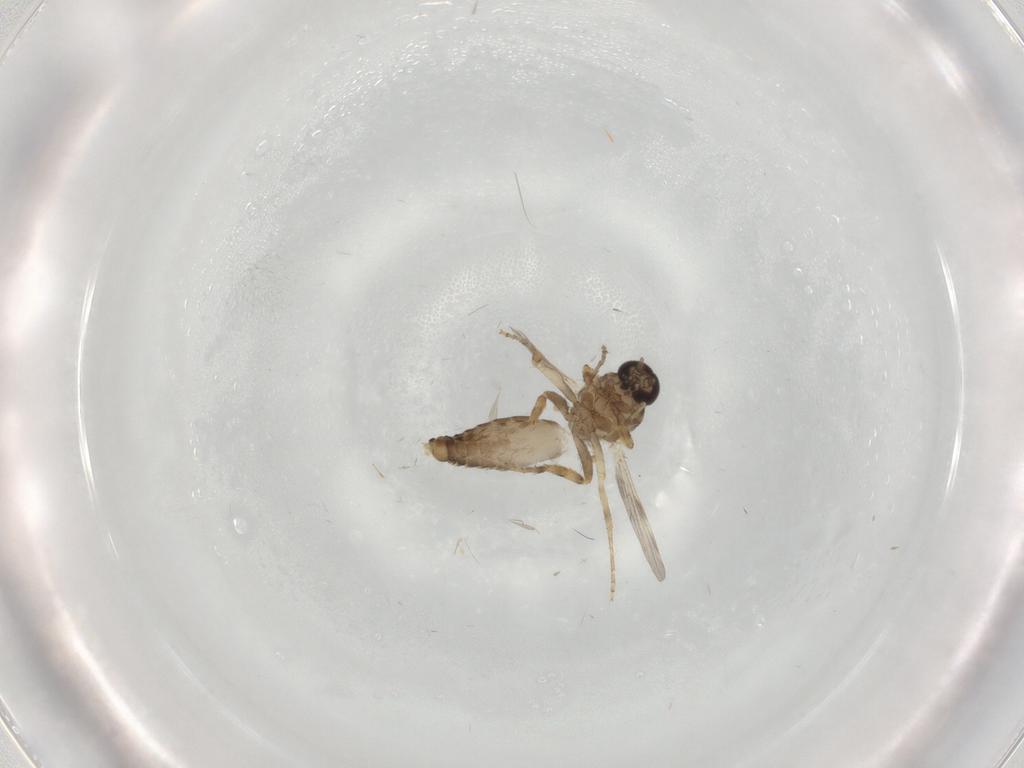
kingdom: Animalia
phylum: Arthropoda
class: Insecta
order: Diptera
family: Ceratopogonidae
